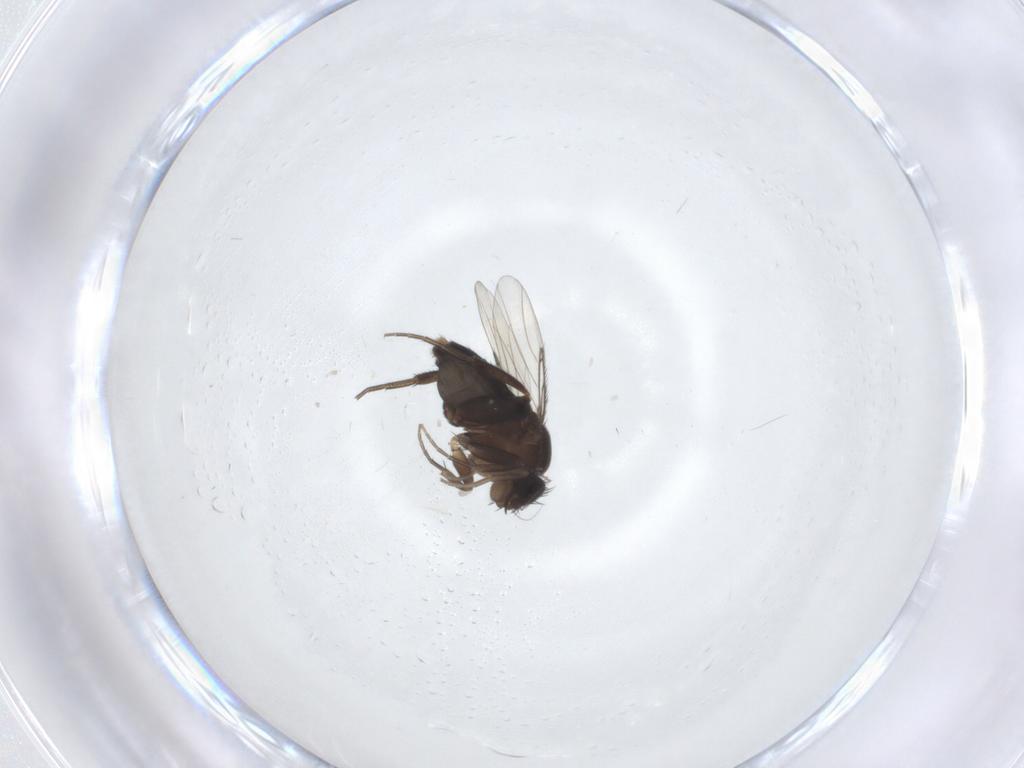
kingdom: Animalia
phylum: Arthropoda
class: Insecta
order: Diptera
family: Phoridae
